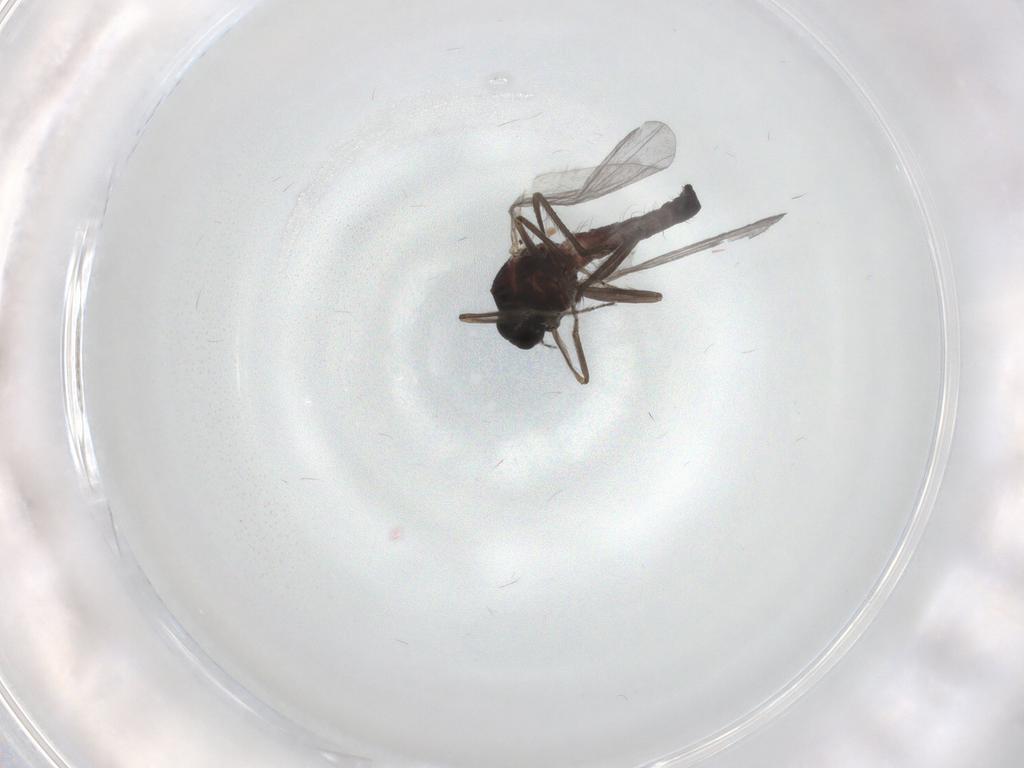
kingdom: Animalia
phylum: Arthropoda
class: Insecta
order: Diptera
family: Ceratopogonidae
